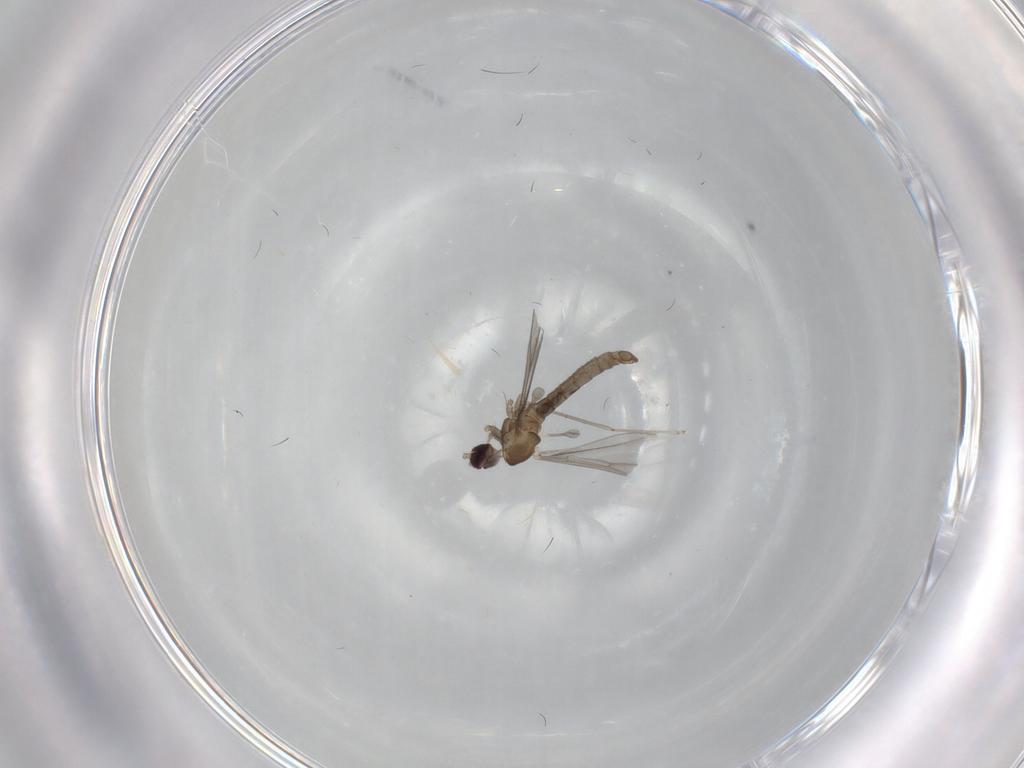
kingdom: Animalia
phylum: Arthropoda
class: Insecta
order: Diptera
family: Cecidomyiidae
